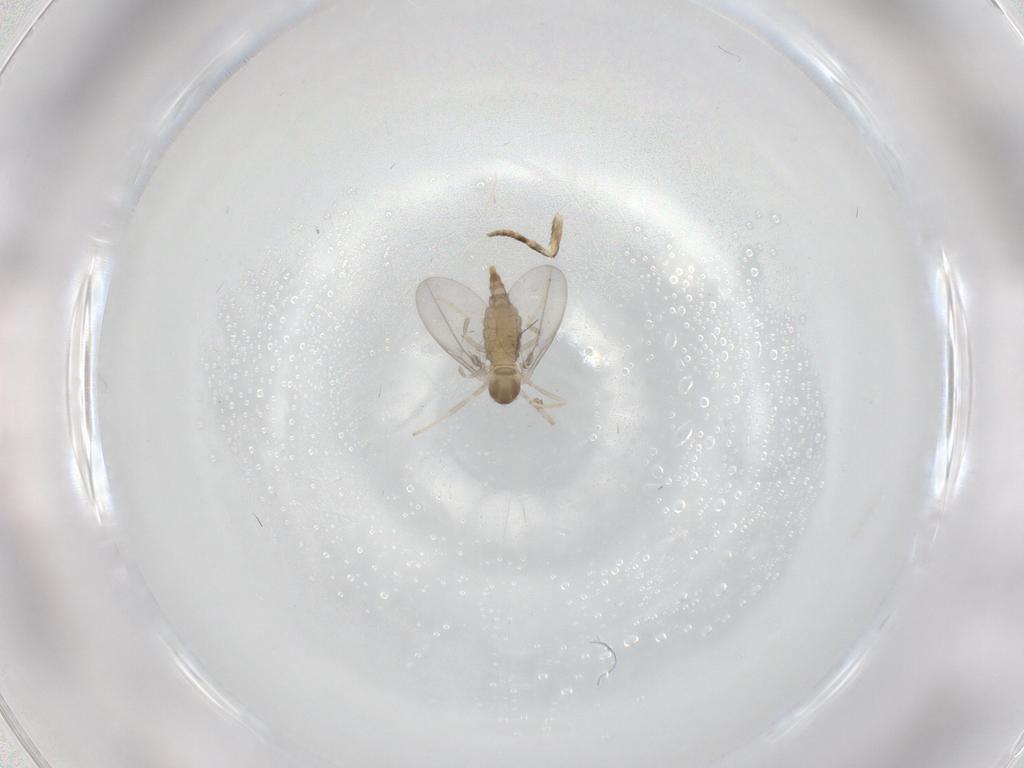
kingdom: Animalia
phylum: Arthropoda
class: Insecta
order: Diptera
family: Cecidomyiidae
